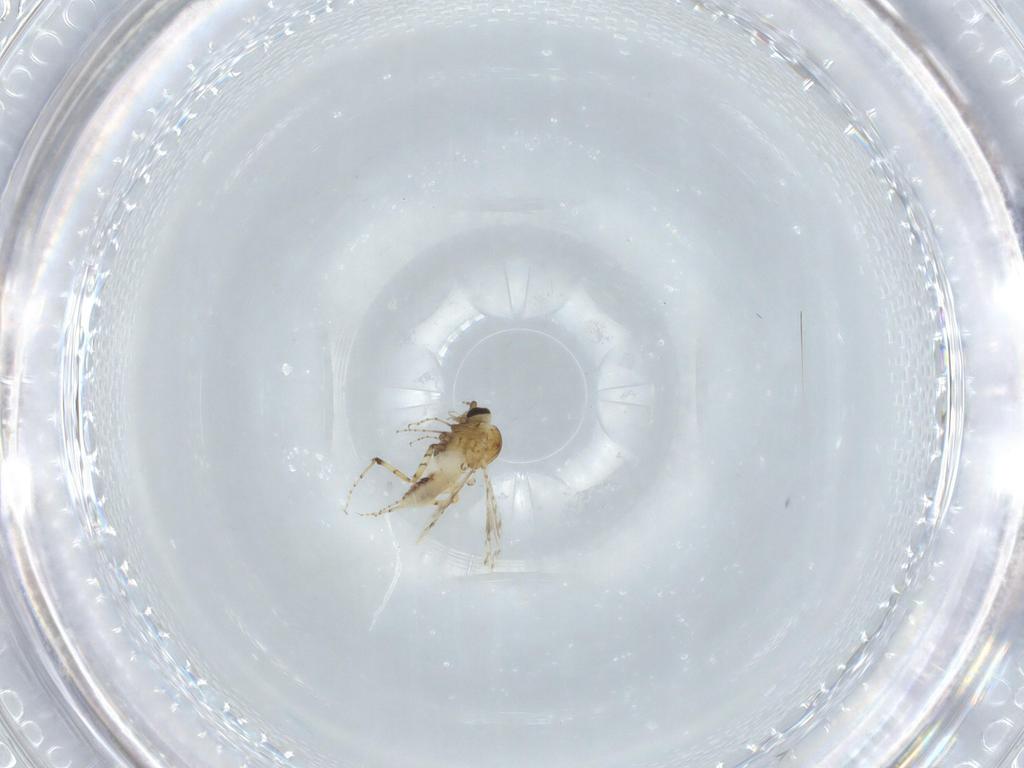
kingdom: Animalia
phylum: Arthropoda
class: Insecta
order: Diptera
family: Ceratopogonidae
